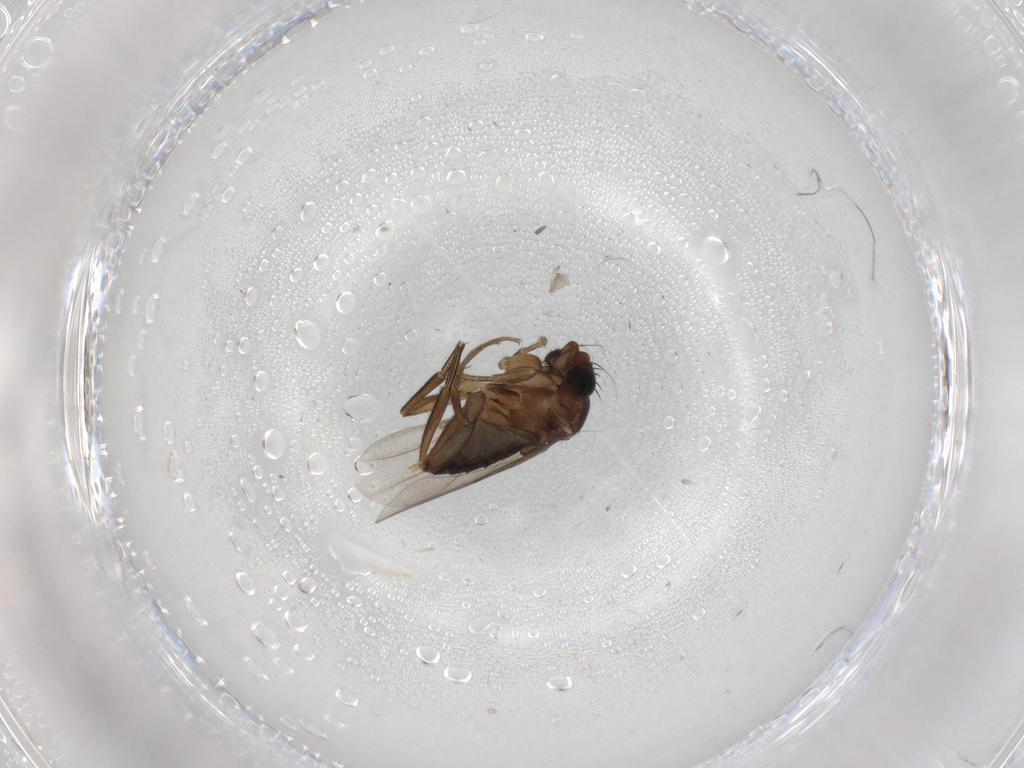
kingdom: Animalia
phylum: Arthropoda
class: Insecta
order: Diptera
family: Phoridae
